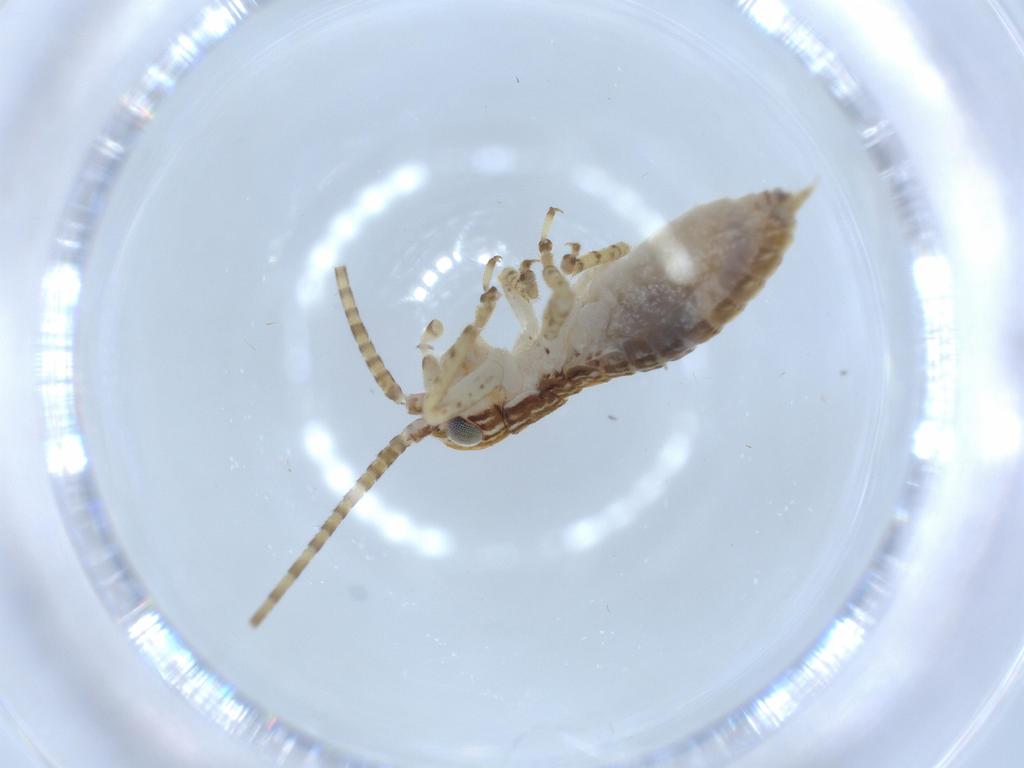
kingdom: Animalia
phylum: Arthropoda
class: Insecta
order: Orthoptera
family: Gryllidae
